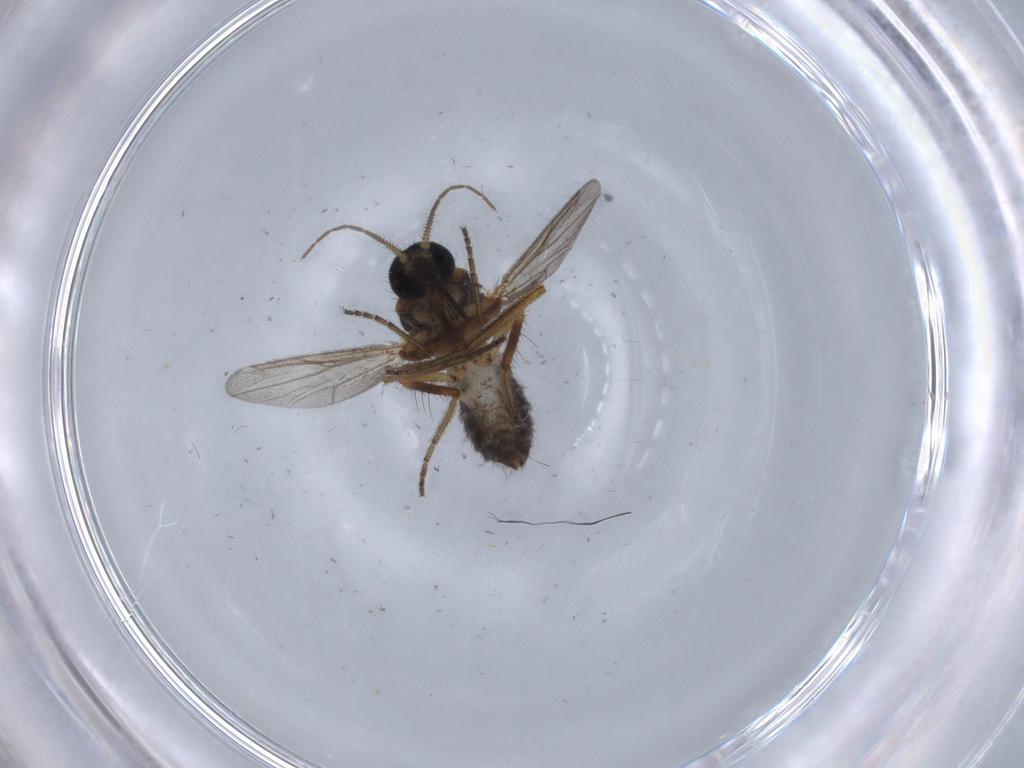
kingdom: Animalia
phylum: Arthropoda
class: Insecta
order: Diptera
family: Ceratopogonidae
